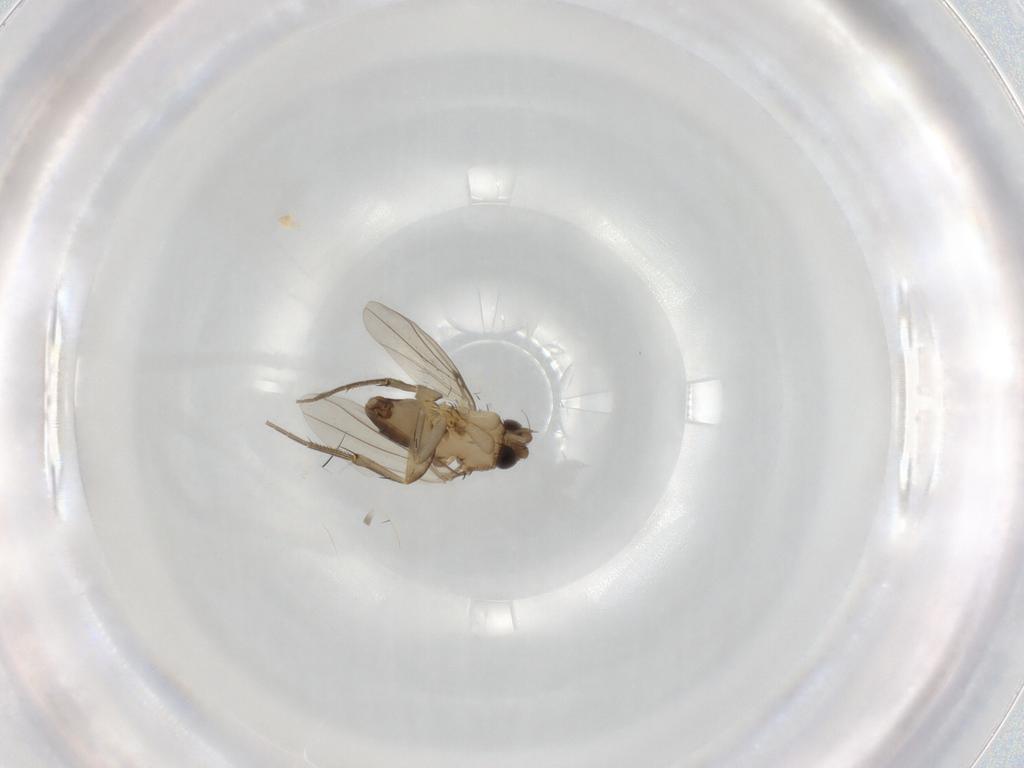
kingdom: Animalia
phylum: Arthropoda
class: Insecta
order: Diptera
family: Phoridae
